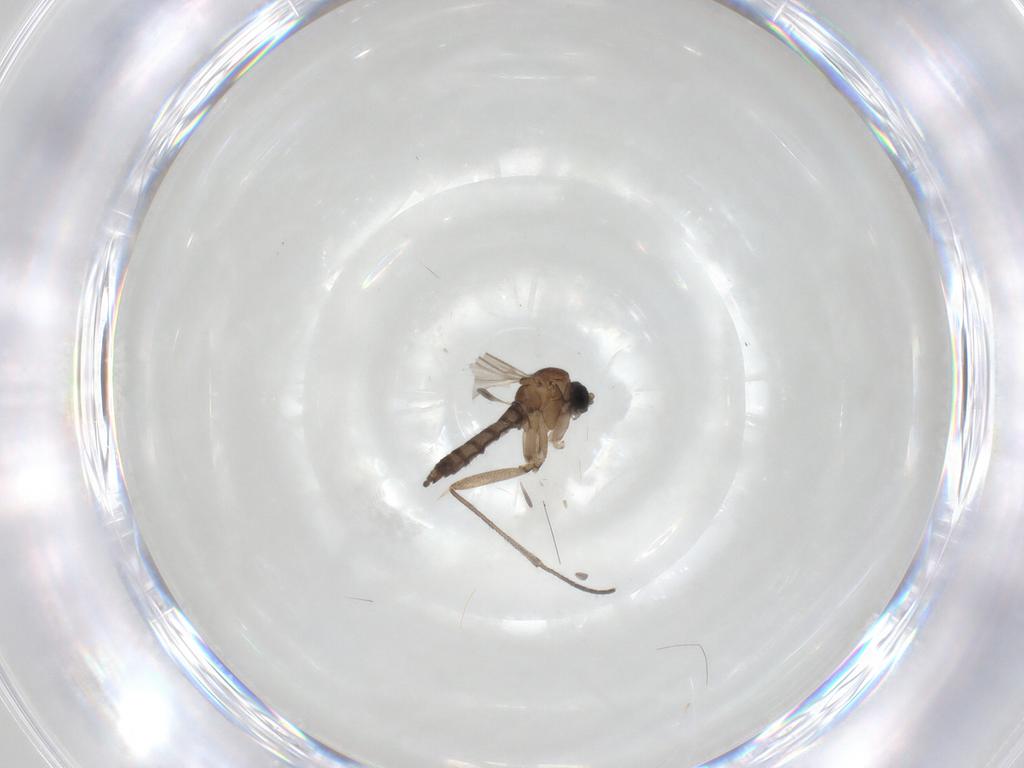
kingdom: Animalia
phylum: Arthropoda
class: Insecta
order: Diptera
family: Sciaridae
